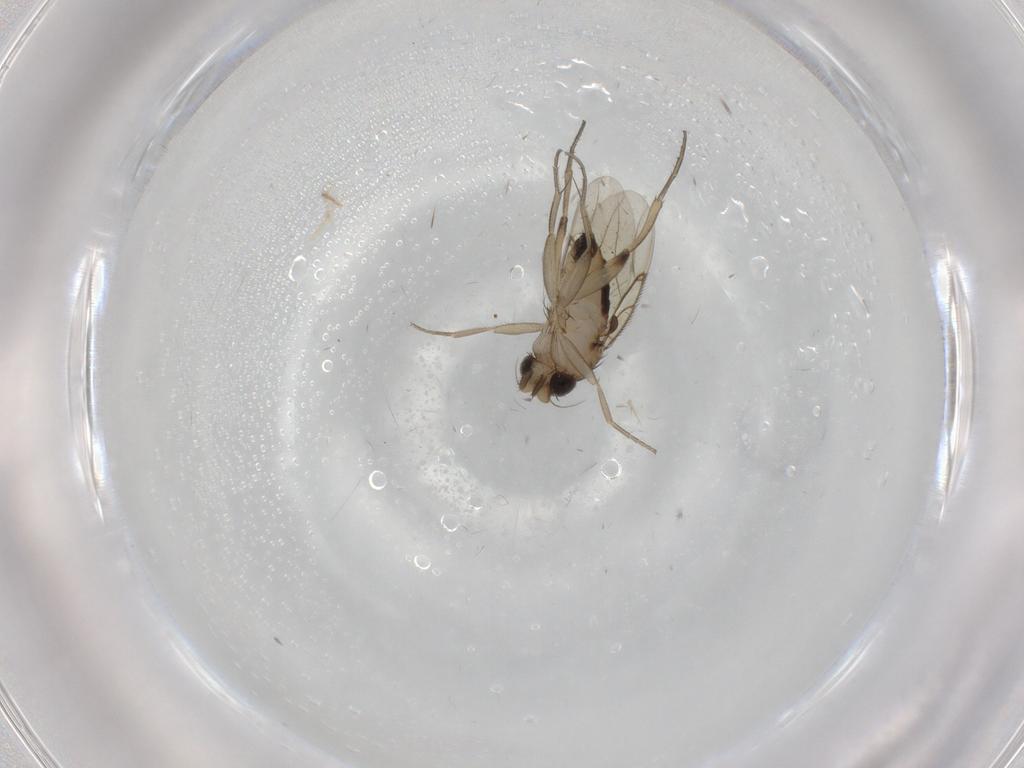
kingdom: Animalia
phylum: Arthropoda
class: Insecta
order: Diptera
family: Phoridae
